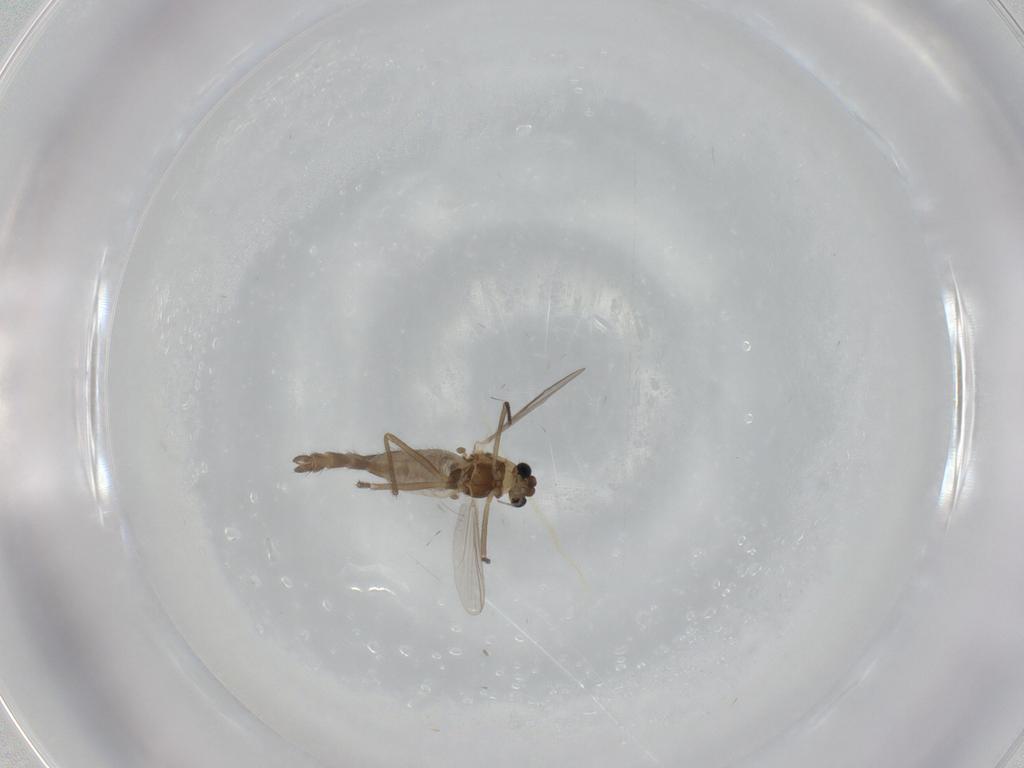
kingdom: Animalia
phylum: Arthropoda
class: Insecta
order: Diptera
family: Chironomidae
